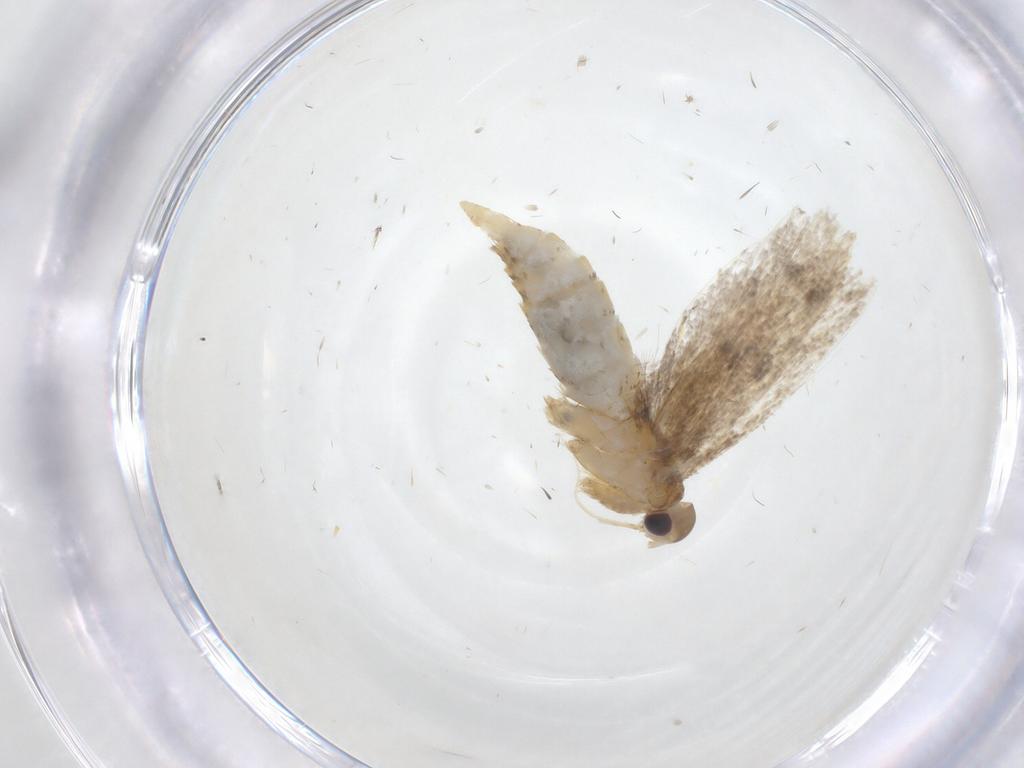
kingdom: Animalia
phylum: Arthropoda
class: Insecta
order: Lepidoptera
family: Oecophoridae
